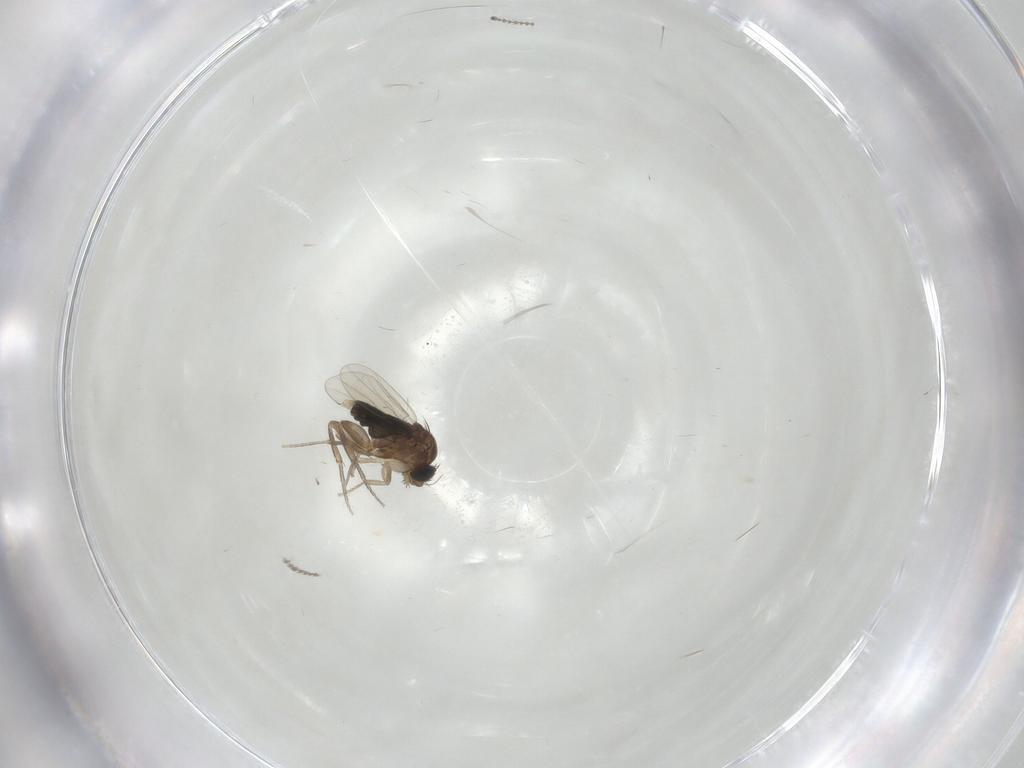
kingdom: Animalia
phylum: Arthropoda
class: Insecta
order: Diptera
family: Phoridae
